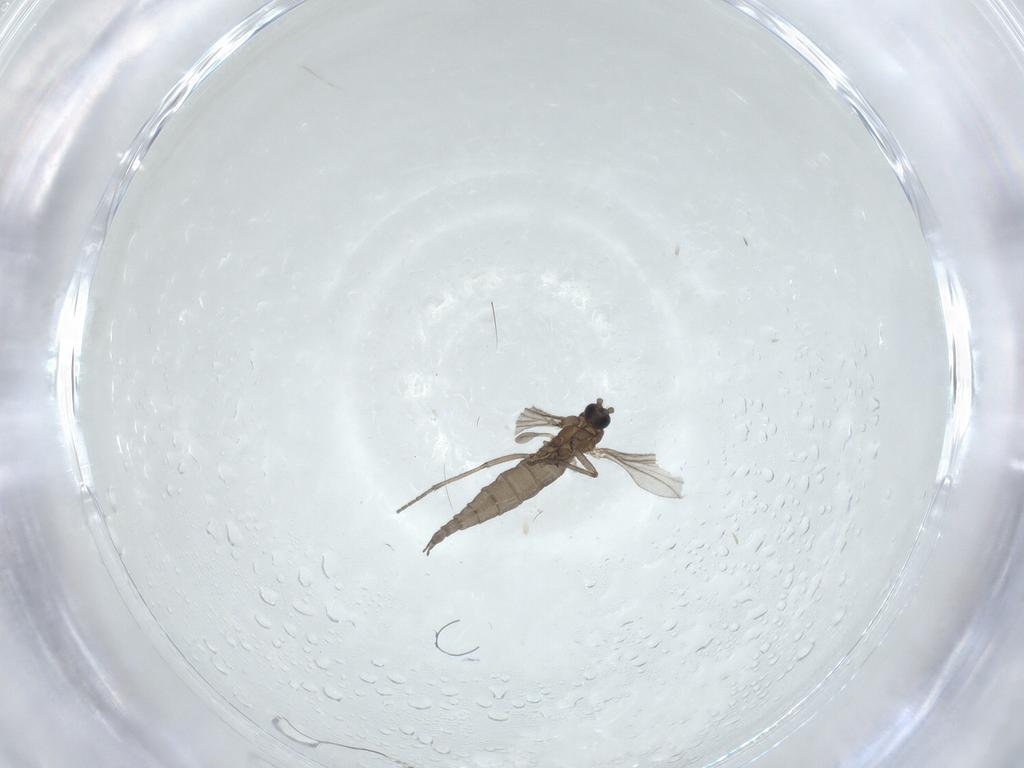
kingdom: Animalia
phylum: Arthropoda
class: Insecta
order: Diptera
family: Sciaridae
